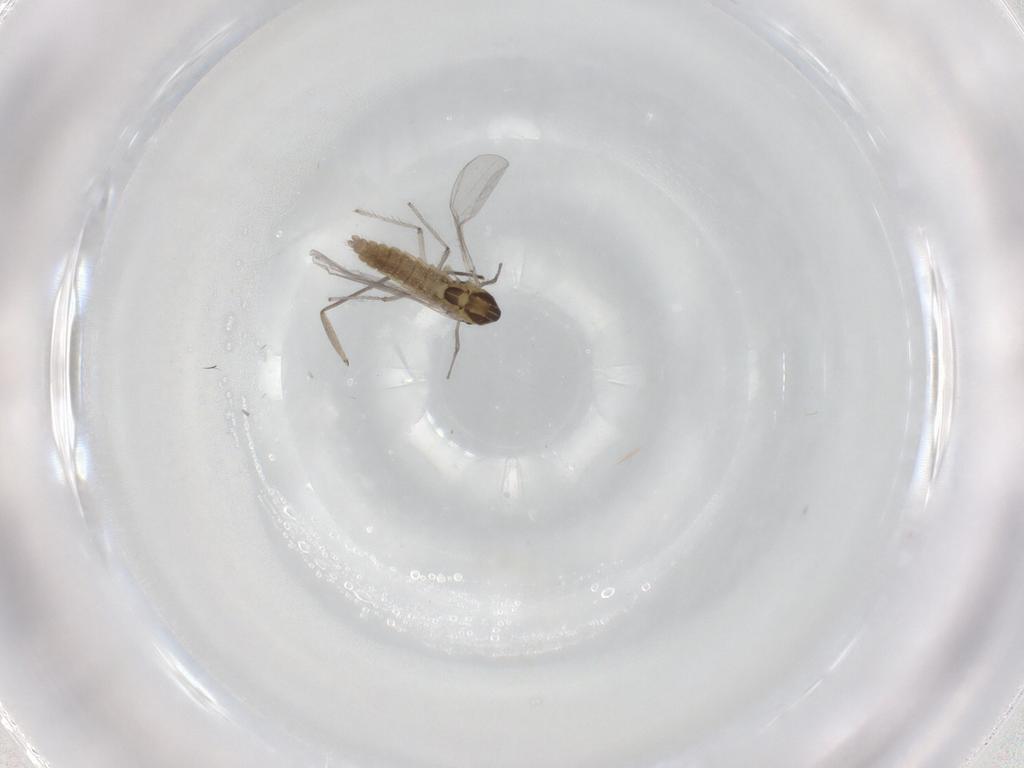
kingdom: Animalia
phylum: Arthropoda
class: Insecta
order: Diptera
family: Chironomidae
